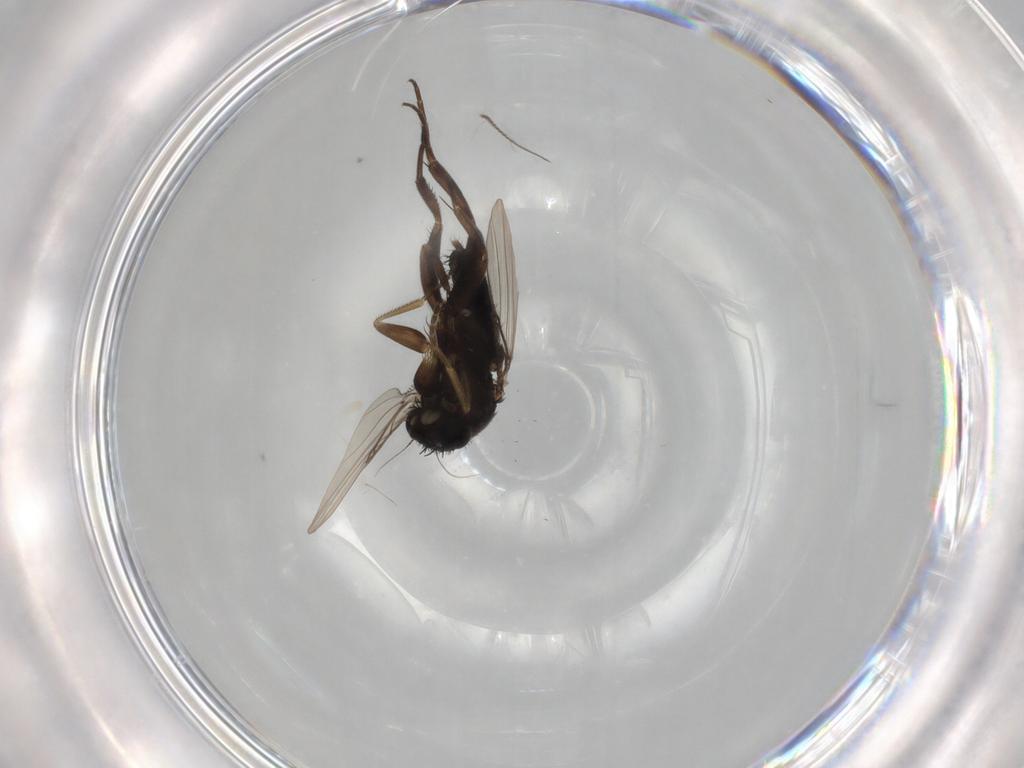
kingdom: Animalia
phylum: Arthropoda
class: Insecta
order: Diptera
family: Phoridae
